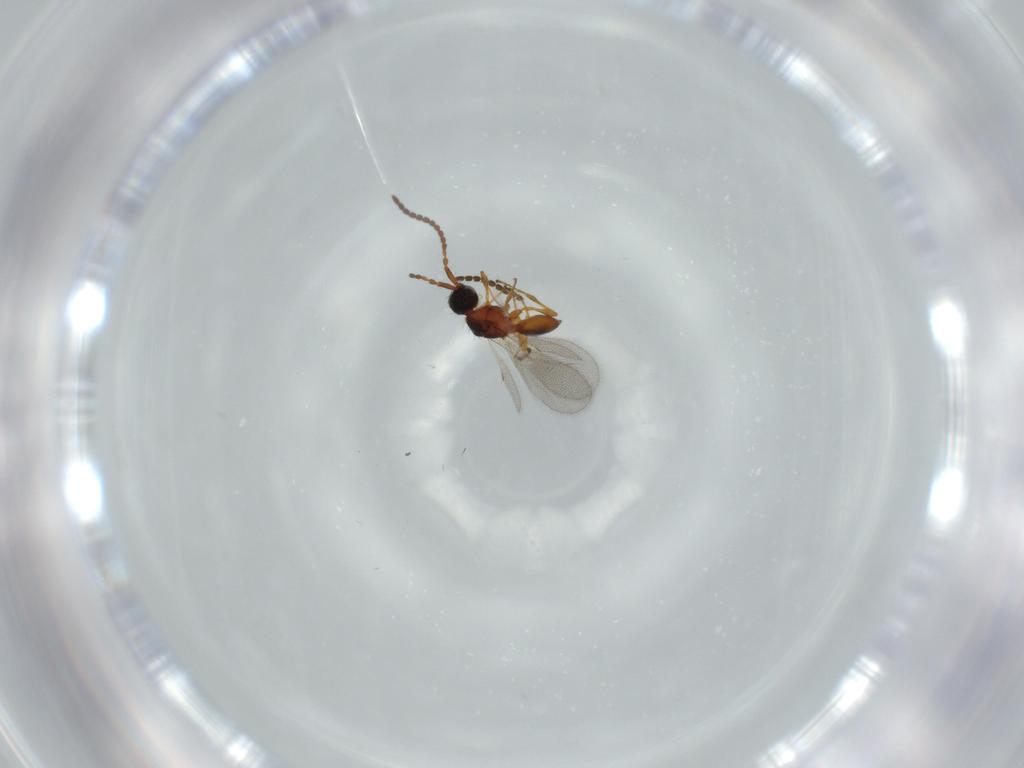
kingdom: Animalia
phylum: Arthropoda
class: Insecta
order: Hymenoptera
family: Diapriidae
